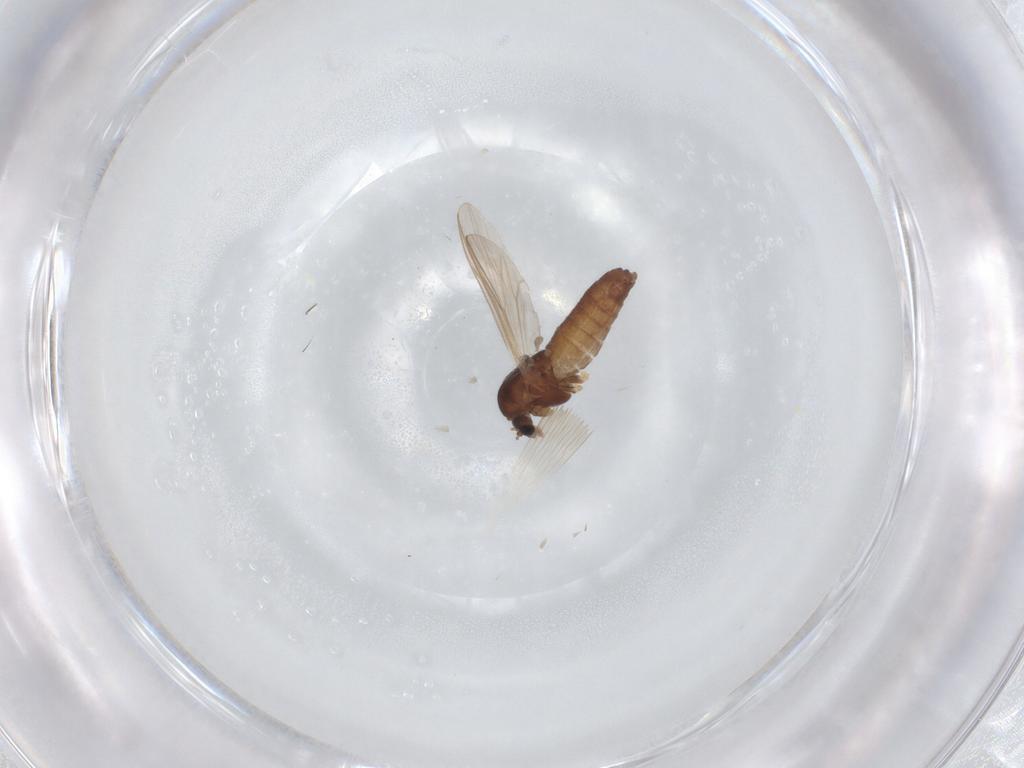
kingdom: Animalia
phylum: Arthropoda
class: Insecta
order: Diptera
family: Chironomidae
